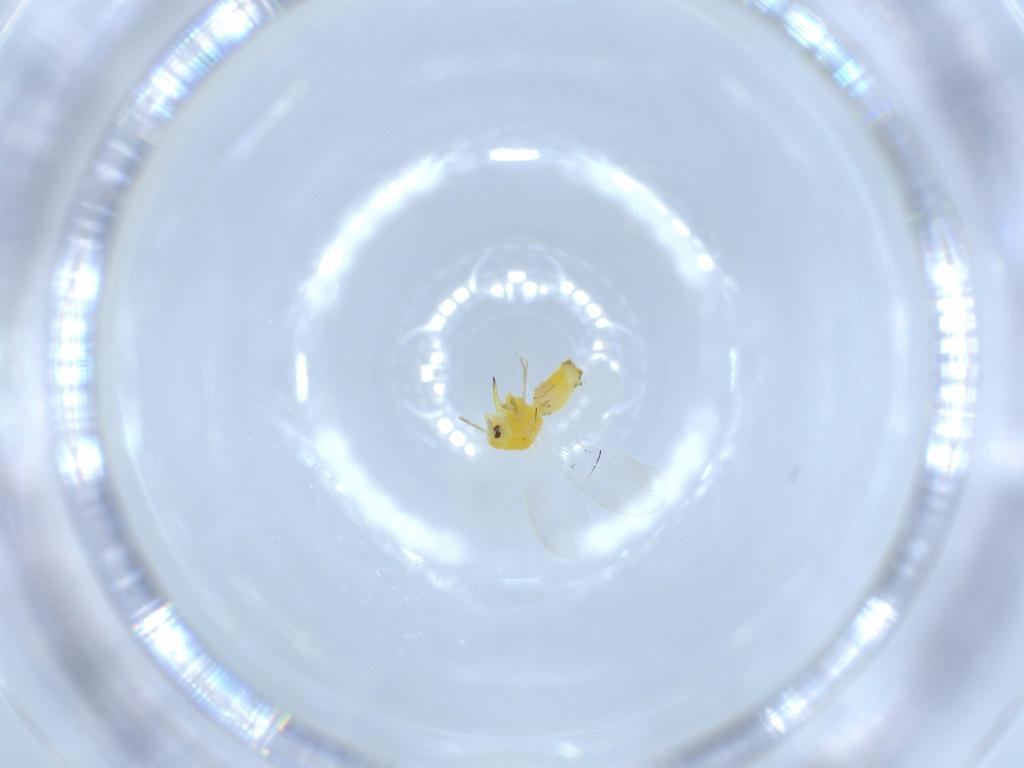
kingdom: Animalia
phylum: Arthropoda
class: Insecta
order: Hemiptera
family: Aleyrodidae
